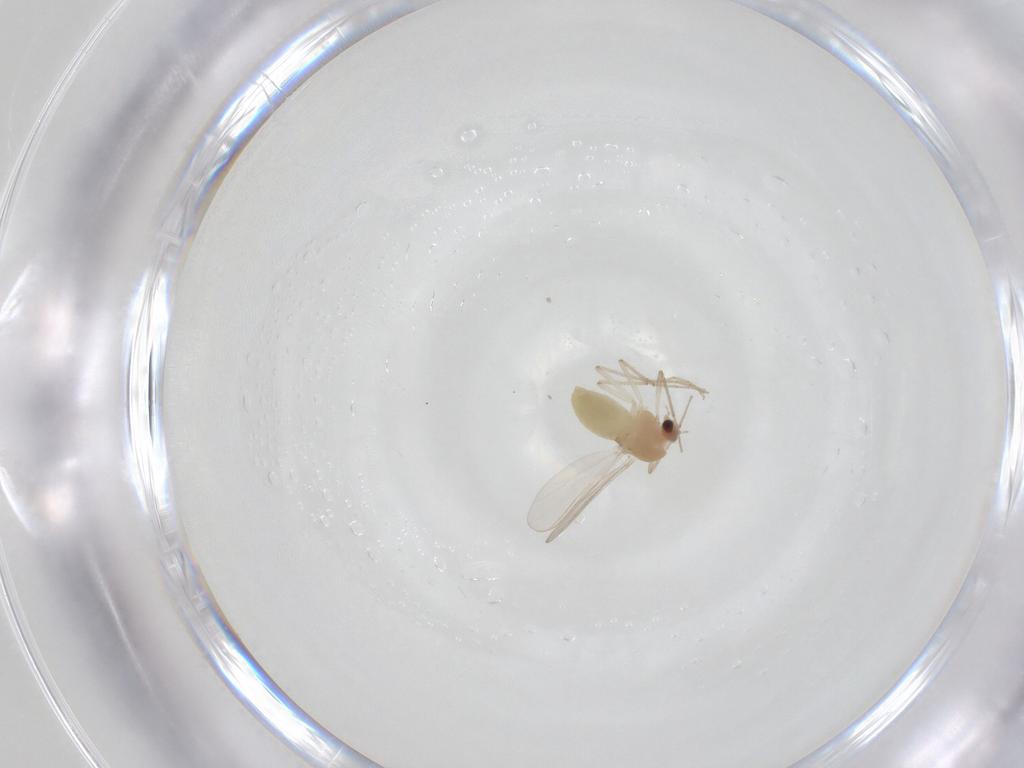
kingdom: Animalia
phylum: Arthropoda
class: Insecta
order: Diptera
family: Chironomidae
